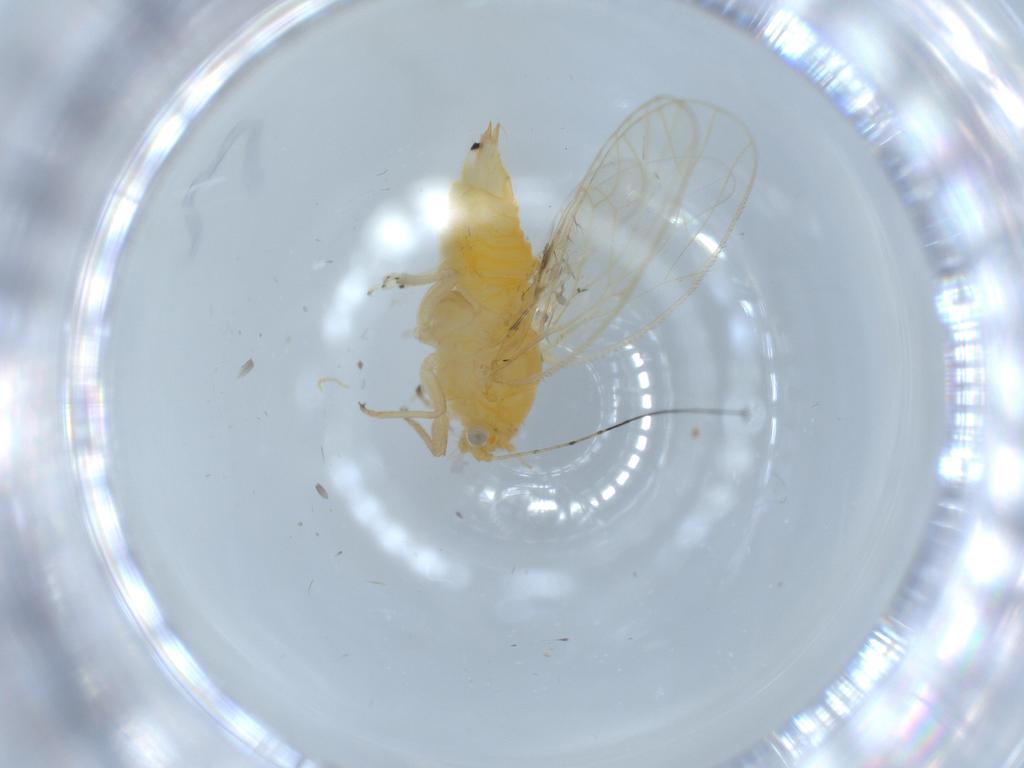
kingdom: Animalia
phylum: Arthropoda
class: Insecta
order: Hemiptera
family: Psyllidae
